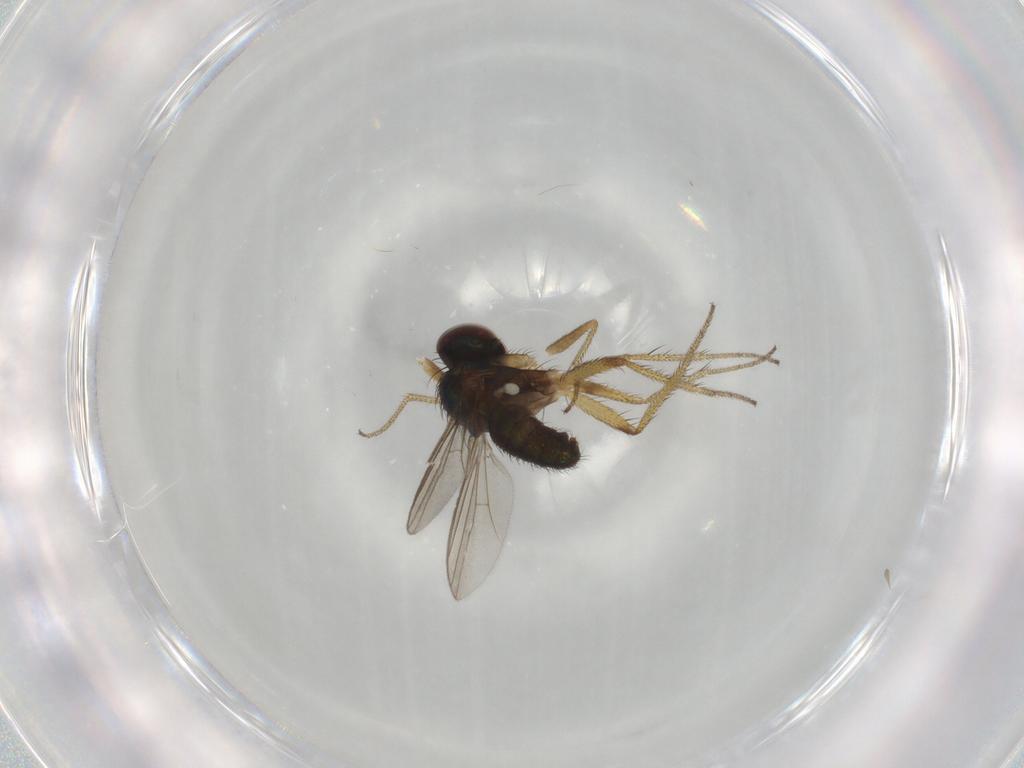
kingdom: Animalia
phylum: Arthropoda
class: Insecta
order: Diptera
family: Dolichopodidae
